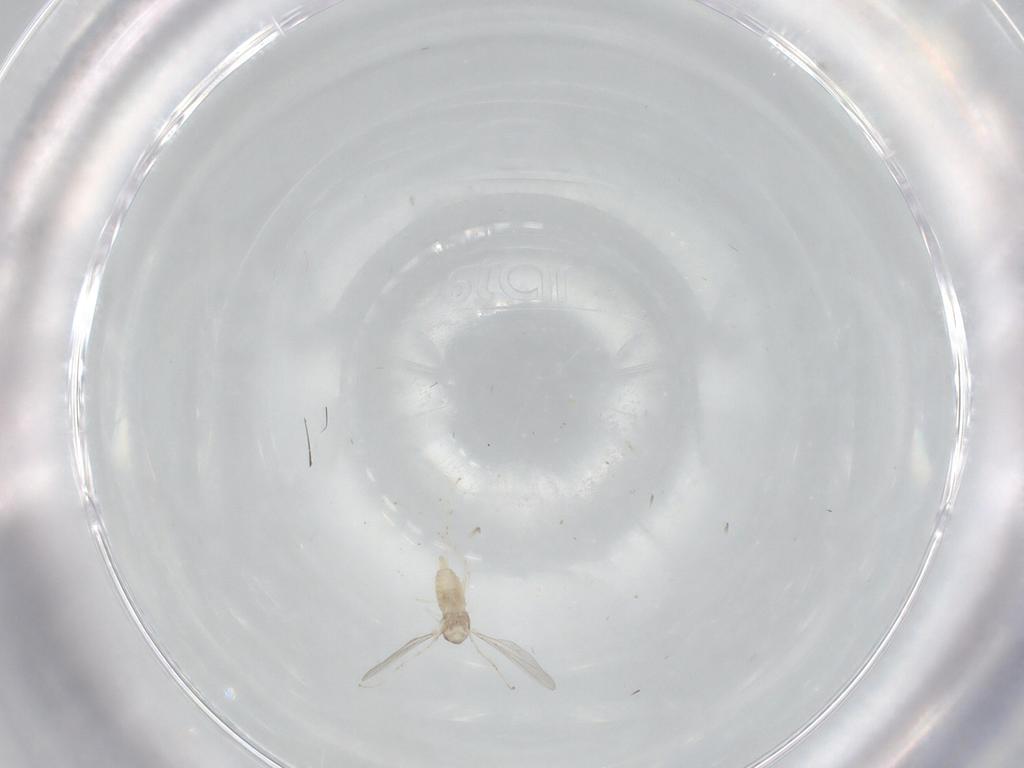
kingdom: Animalia
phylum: Arthropoda
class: Insecta
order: Diptera
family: Cecidomyiidae
